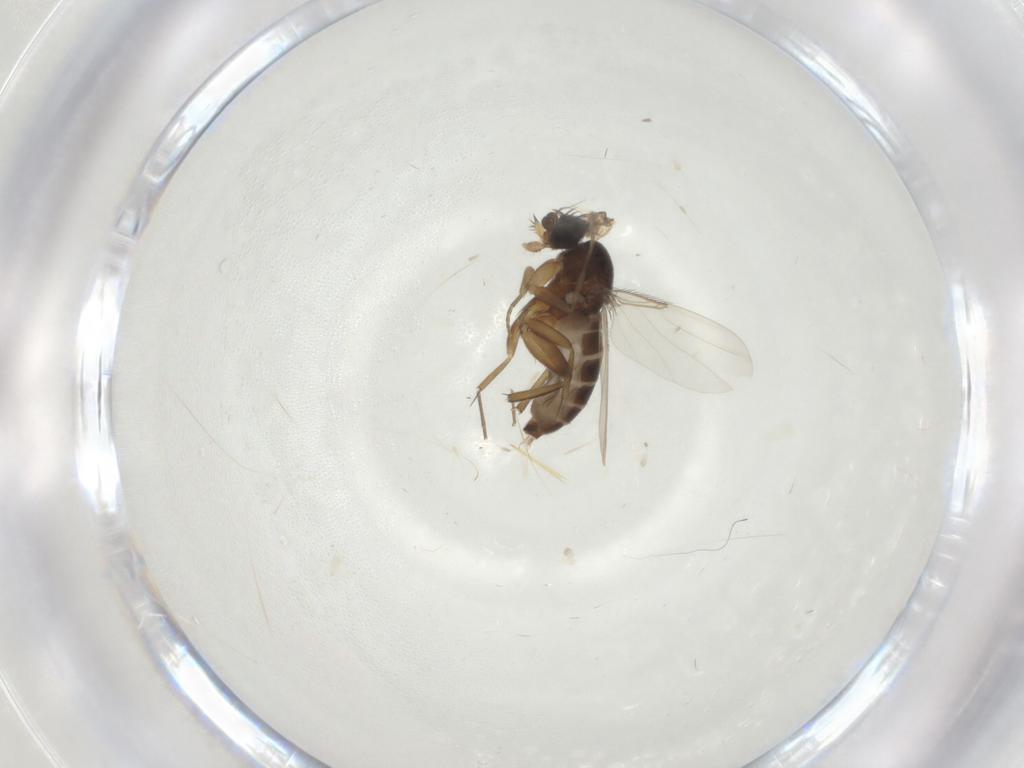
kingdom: Animalia
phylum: Arthropoda
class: Insecta
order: Diptera
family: Phoridae
